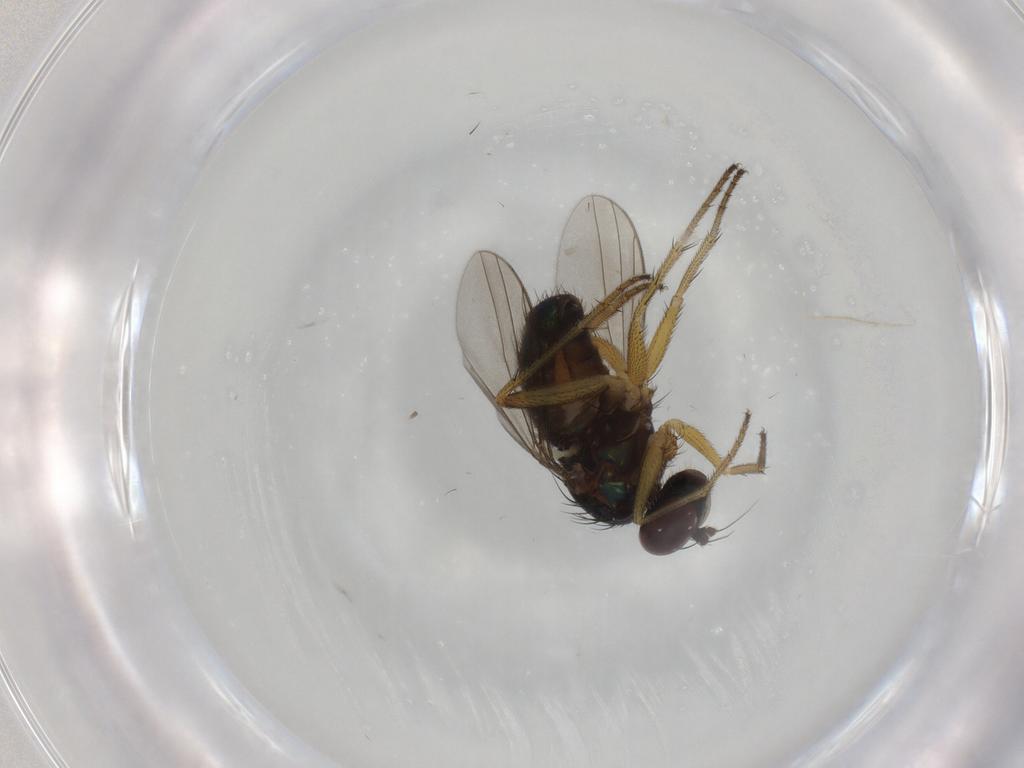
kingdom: Animalia
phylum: Arthropoda
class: Insecta
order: Diptera
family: Dolichopodidae
